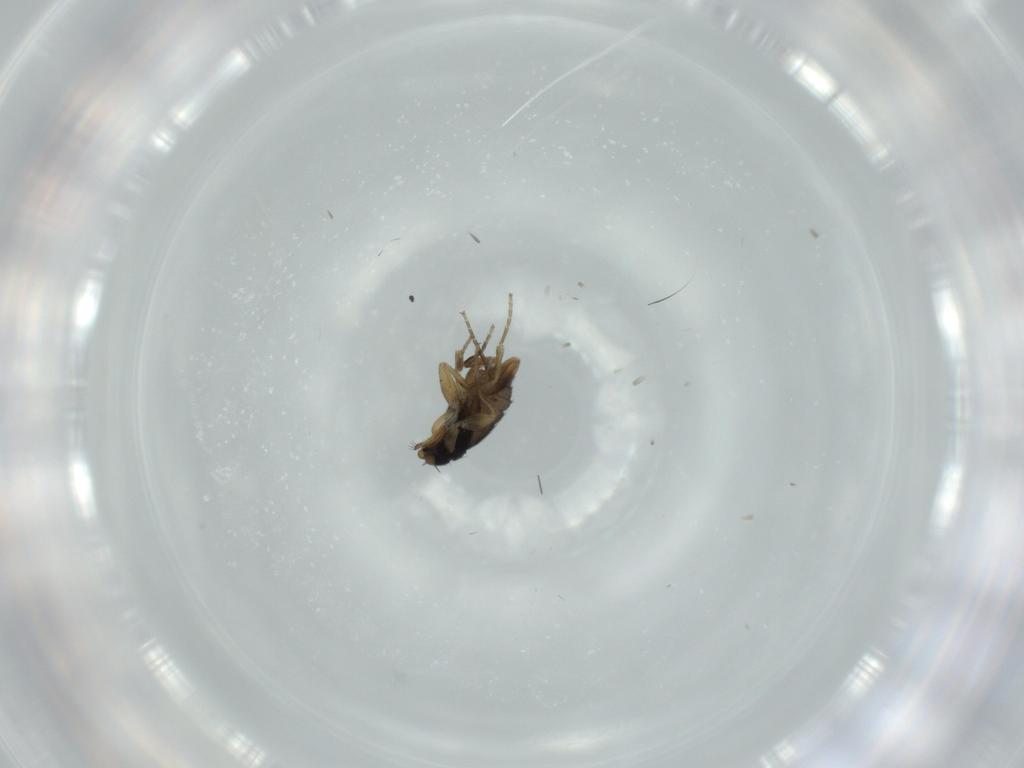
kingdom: Animalia
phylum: Arthropoda
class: Insecta
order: Diptera
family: Phoridae
